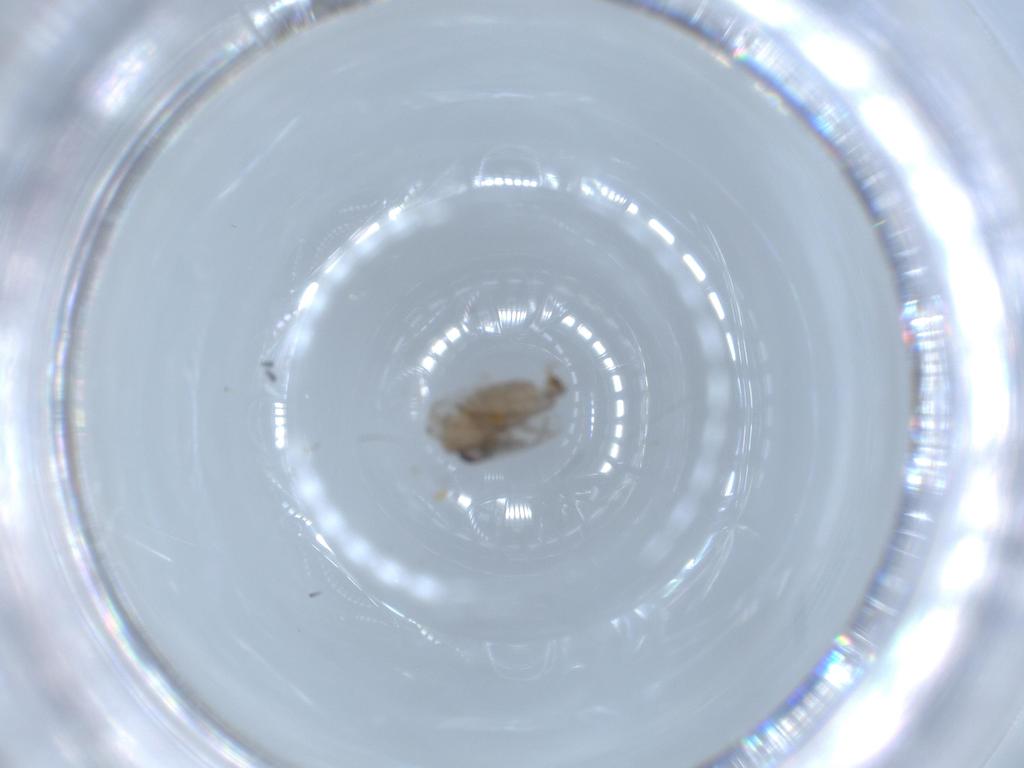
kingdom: Animalia
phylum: Arthropoda
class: Insecta
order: Diptera
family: Psychodidae
